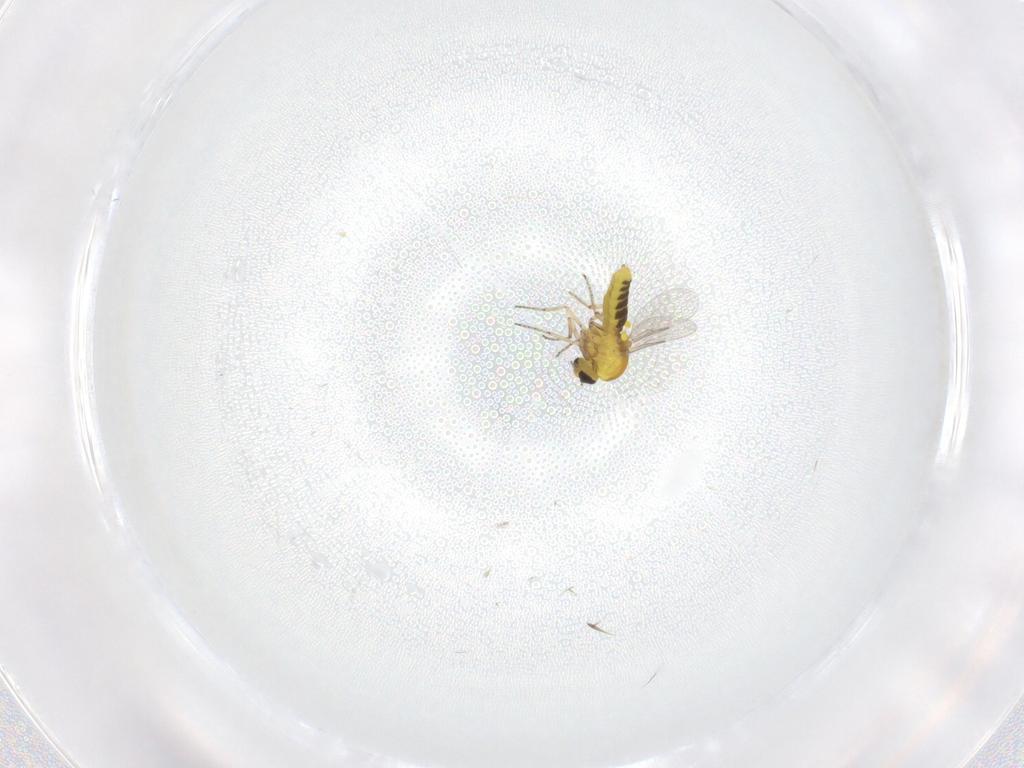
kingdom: Animalia
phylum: Arthropoda
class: Insecta
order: Diptera
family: Ceratopogonidae
